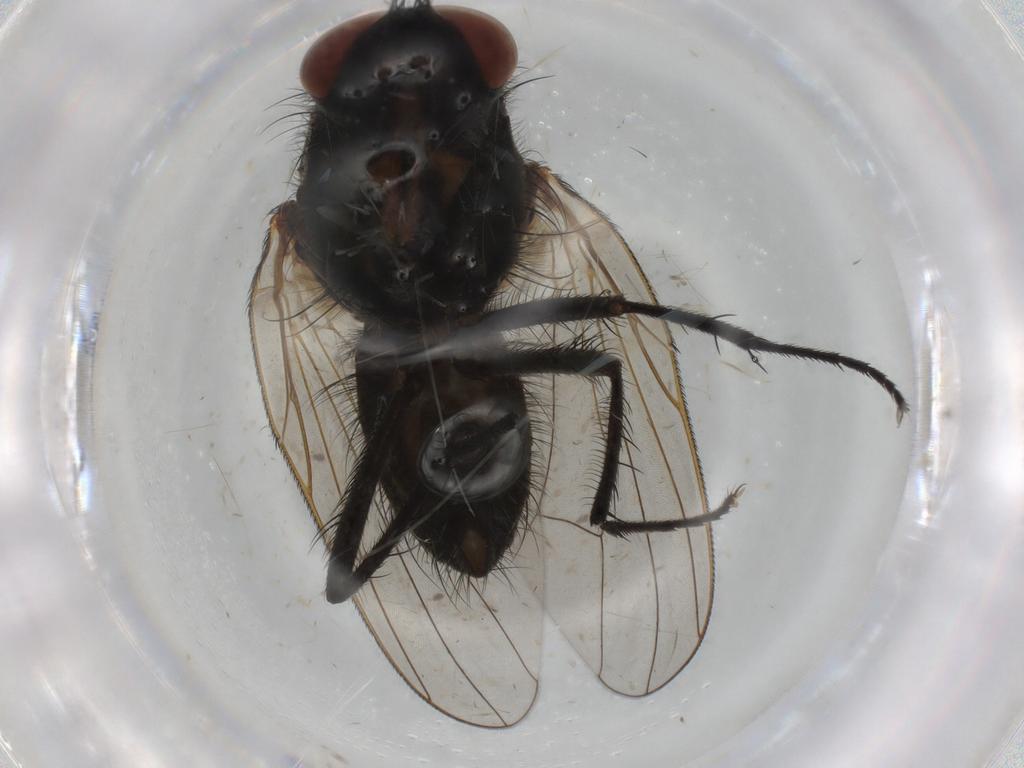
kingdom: Animalia
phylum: Arthropoda
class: Insecta
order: Diptera
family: Anthomyiidae
